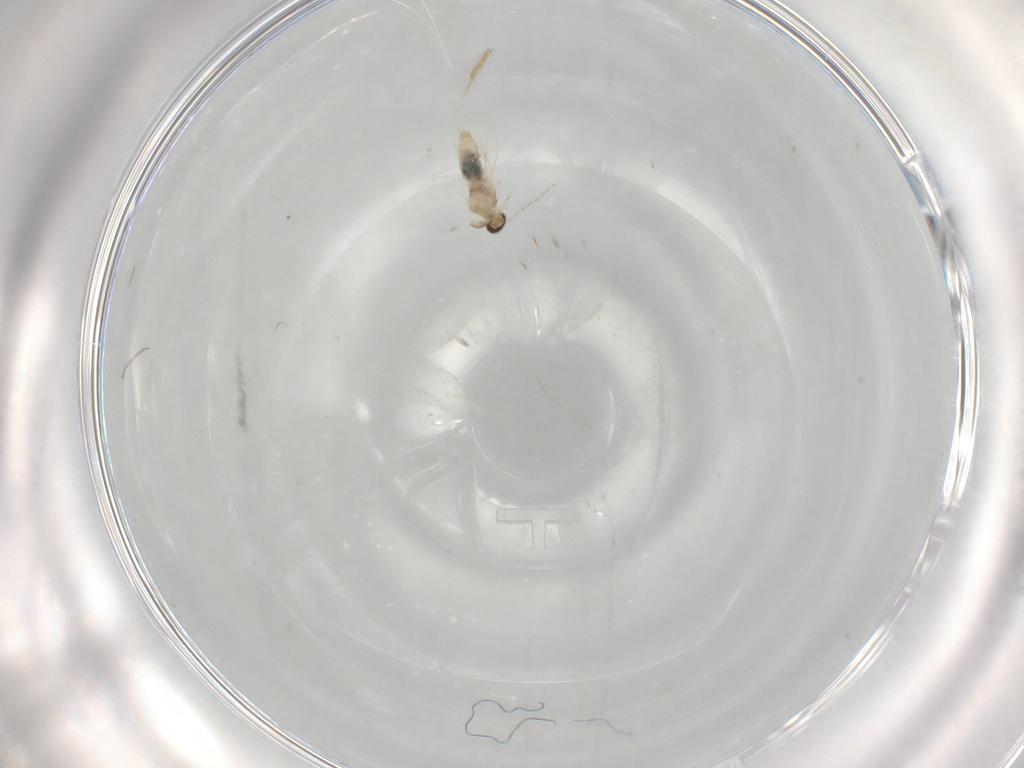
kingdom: Animalia
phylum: Arthropoda
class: Insecta
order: Diptera
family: Cecidomyiidae
